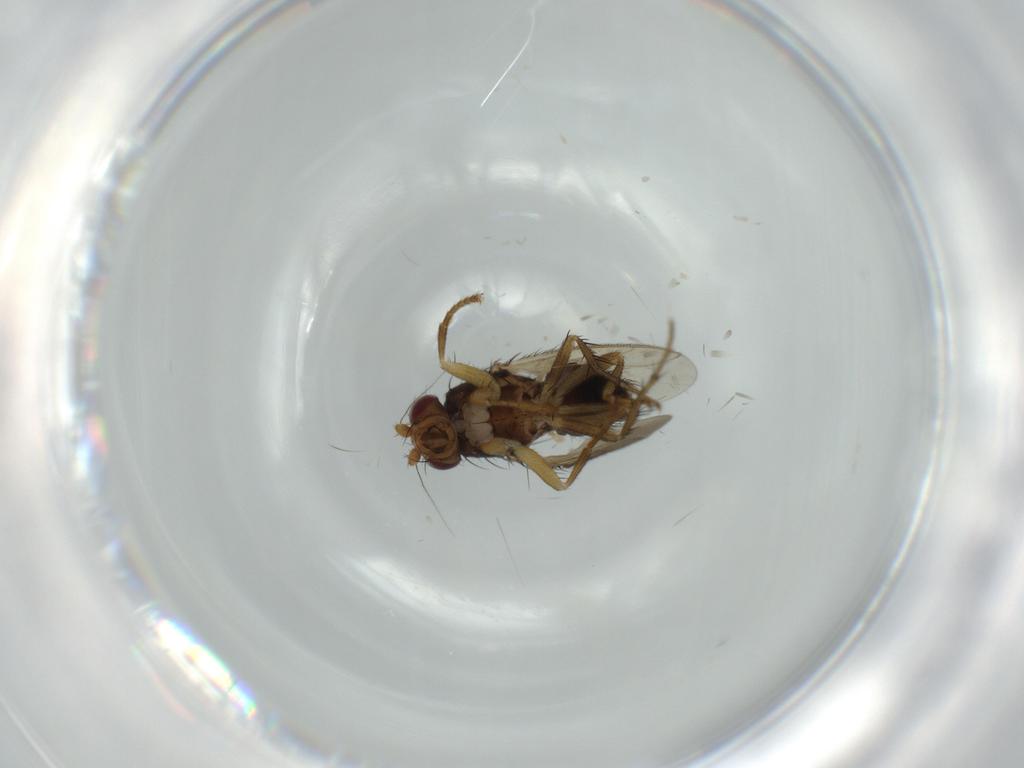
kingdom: Animalia
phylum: Arthropoda
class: Insecta
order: Diptera
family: Sphaeroceridae
